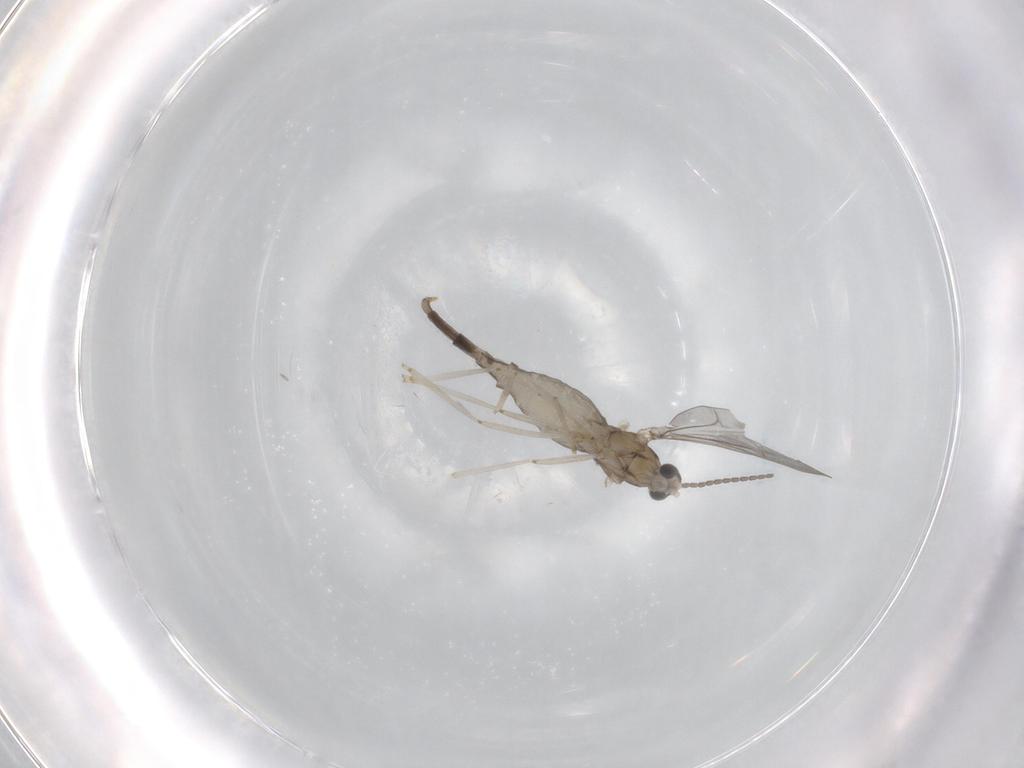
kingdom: Animalia
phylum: Arthropoda
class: Insecta
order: Diptera
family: Cecidomyiidae
